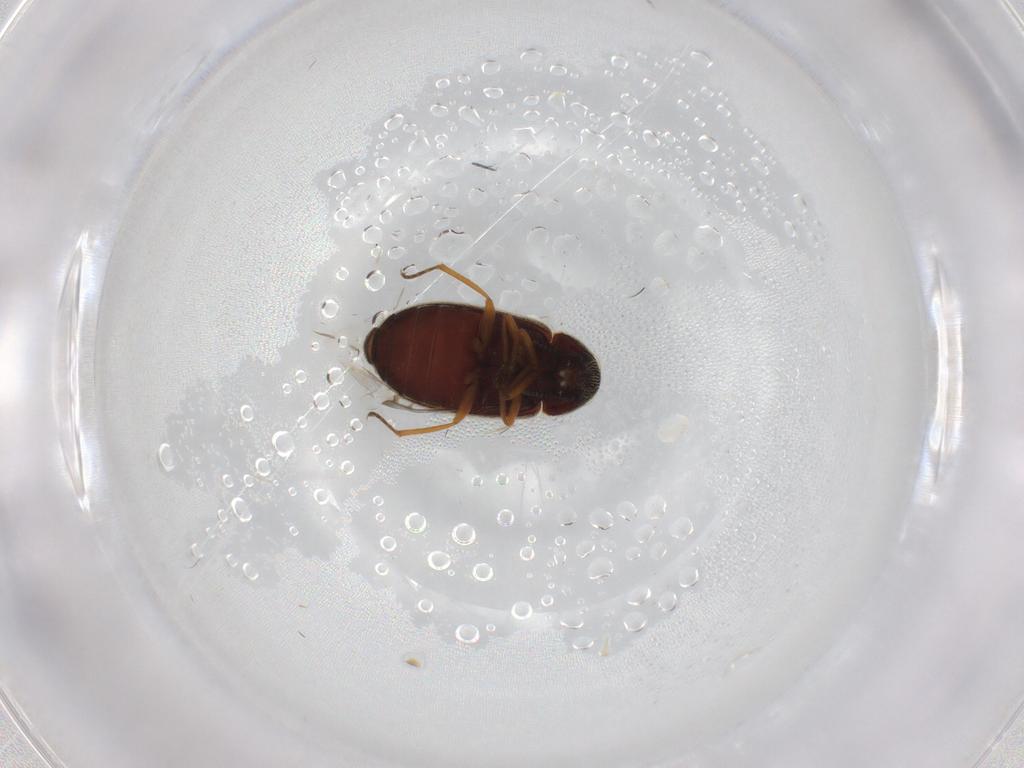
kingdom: Animalia
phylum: Arthropoda
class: Insecta
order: Coleoptera
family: Rhadalidae
